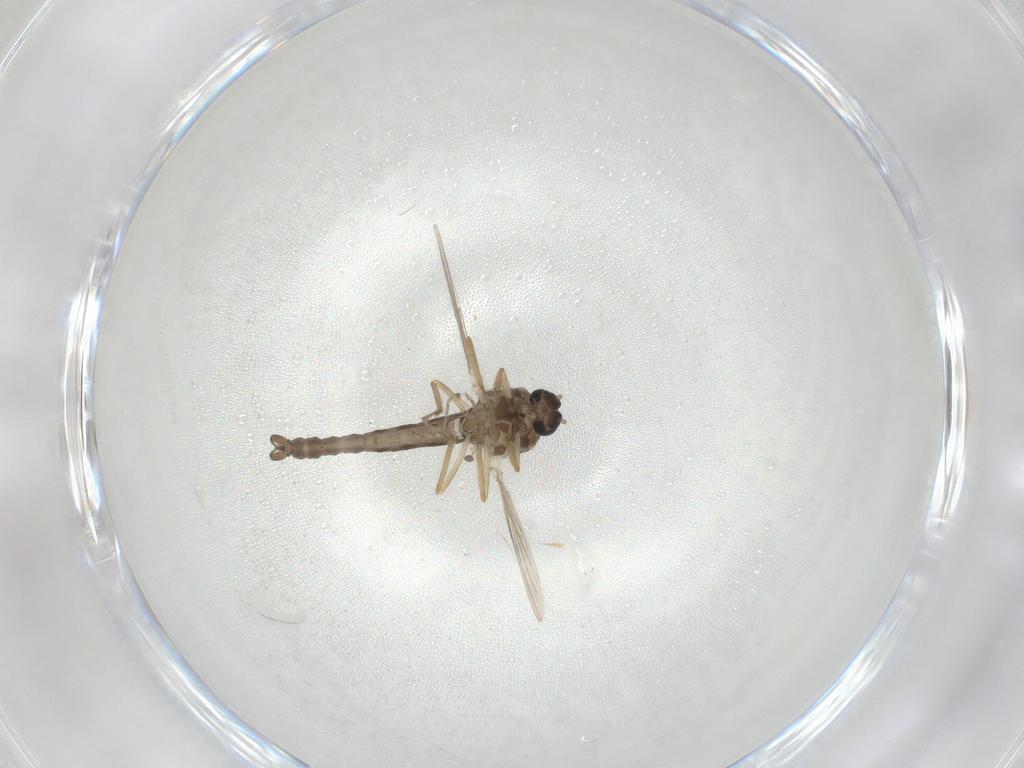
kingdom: Animalia
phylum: Arthropoda
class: Insecta
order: Diptera
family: Ceratopogonidae
